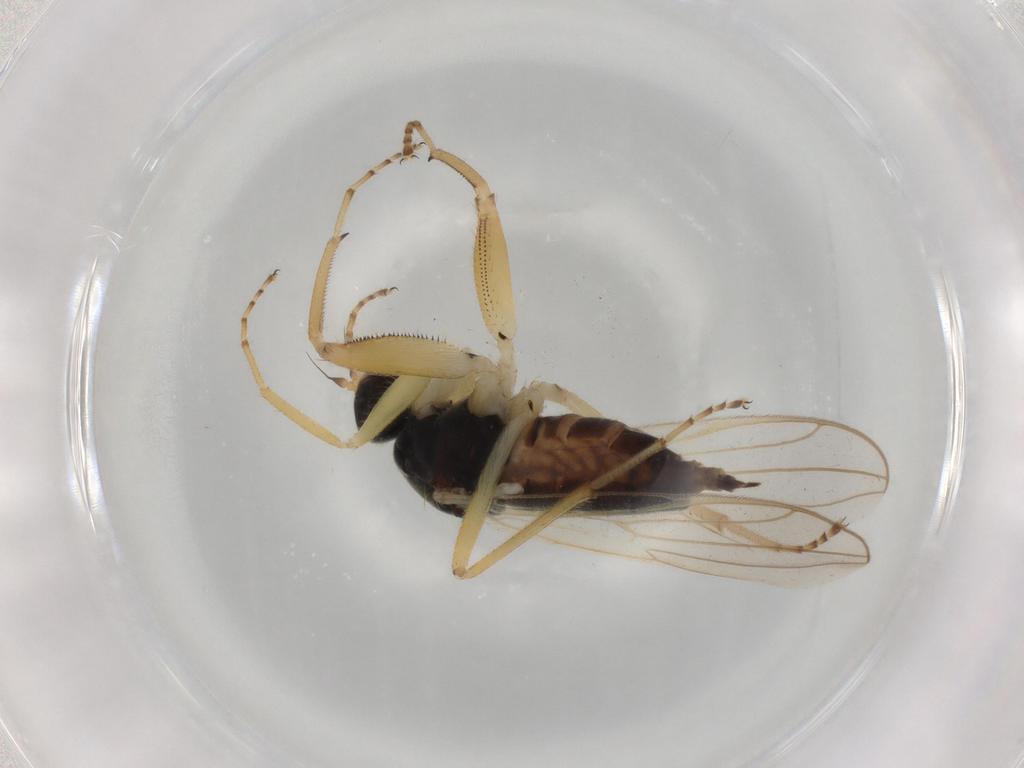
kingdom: Animalia
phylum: Arthropoda
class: Insecta
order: Diptera
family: Hybotidae
